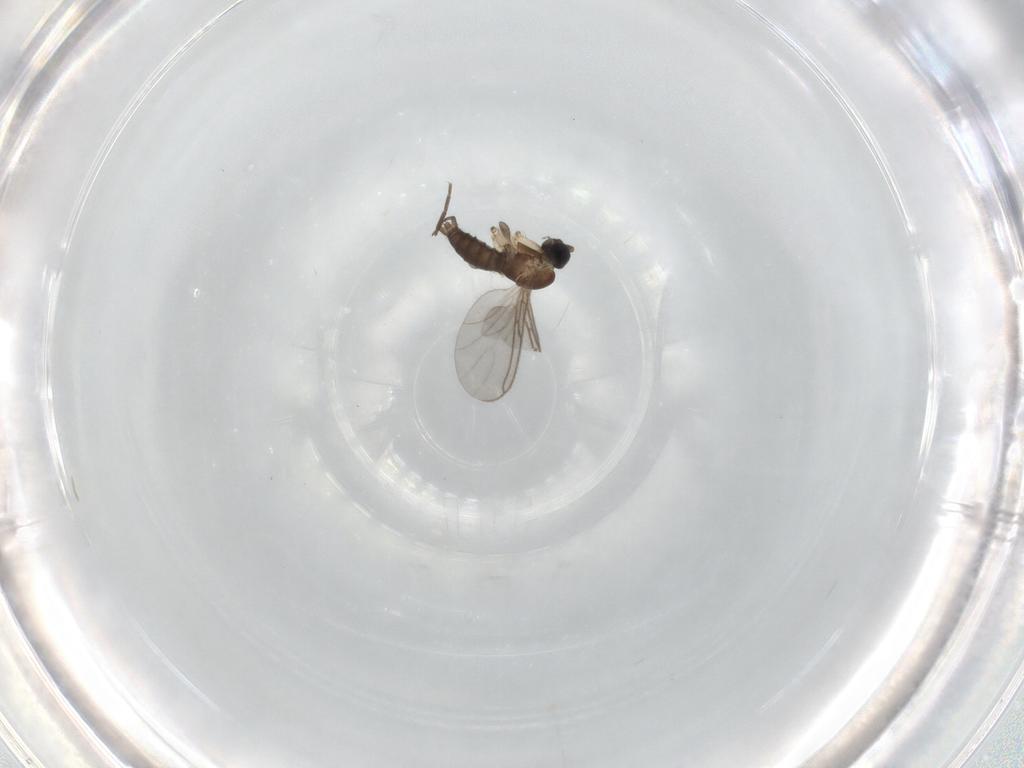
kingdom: Animalia
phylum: Arthropoda
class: Insecta
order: Diptera
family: Sciaridae
